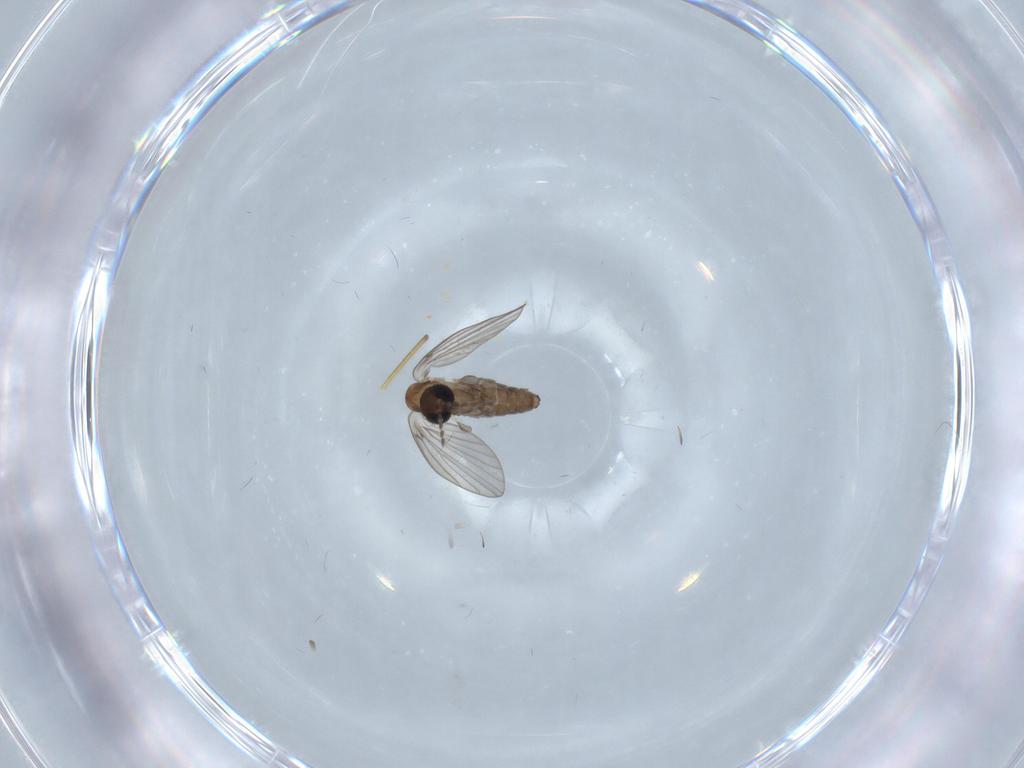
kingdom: Animalia
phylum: Arthropoda
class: Insecta
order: Diptera
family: Psychodidae
